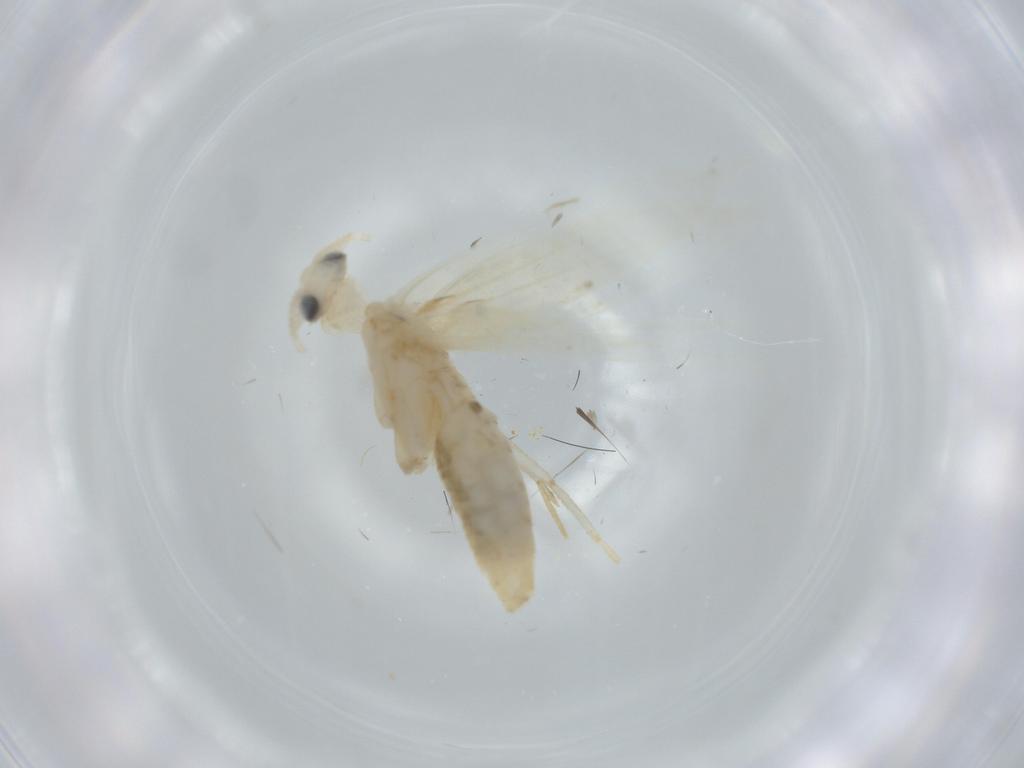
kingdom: Animalia
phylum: Arthropoda
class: Insecta
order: Lepidoptera
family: Opostegidae
